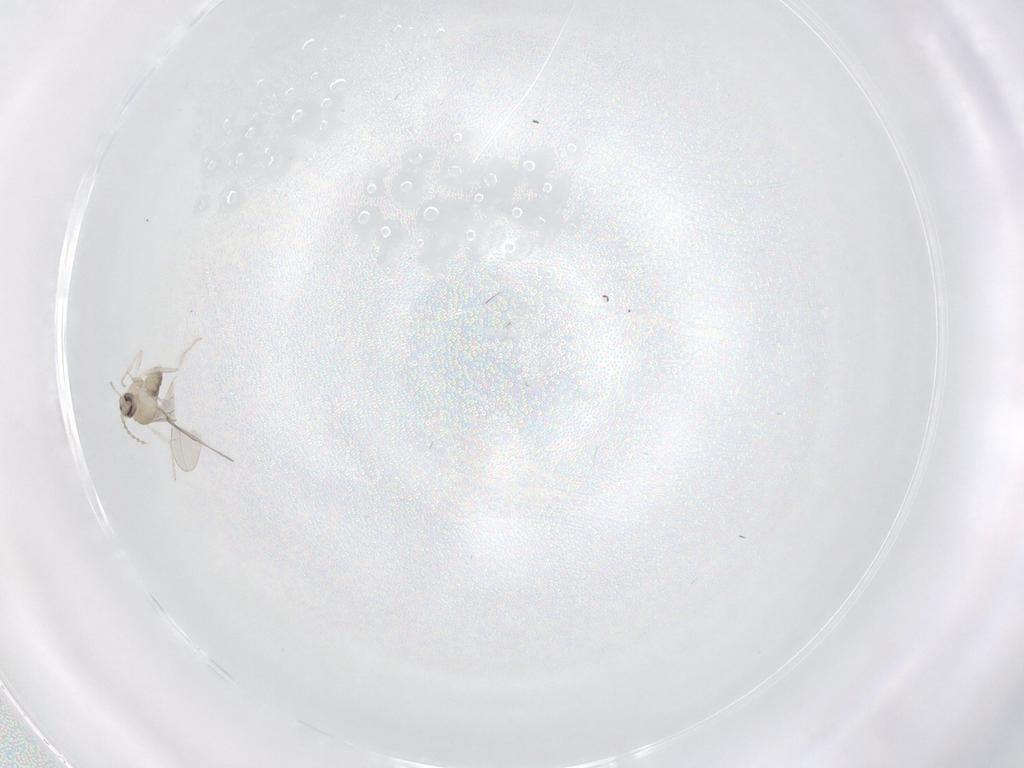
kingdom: Animalia
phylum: Arthropoda
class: Insecta
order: Diptera
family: Cecidomyiidae
